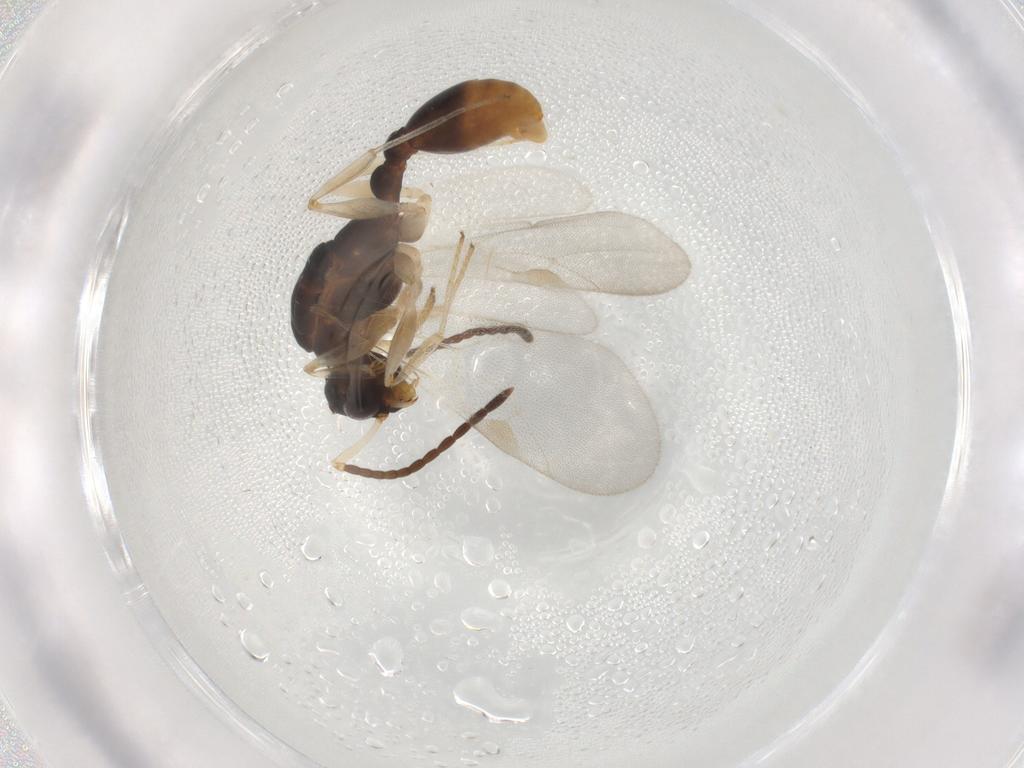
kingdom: Animalia
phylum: Arthropoda
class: Insecta
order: Hymenoptera
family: Formicidae
